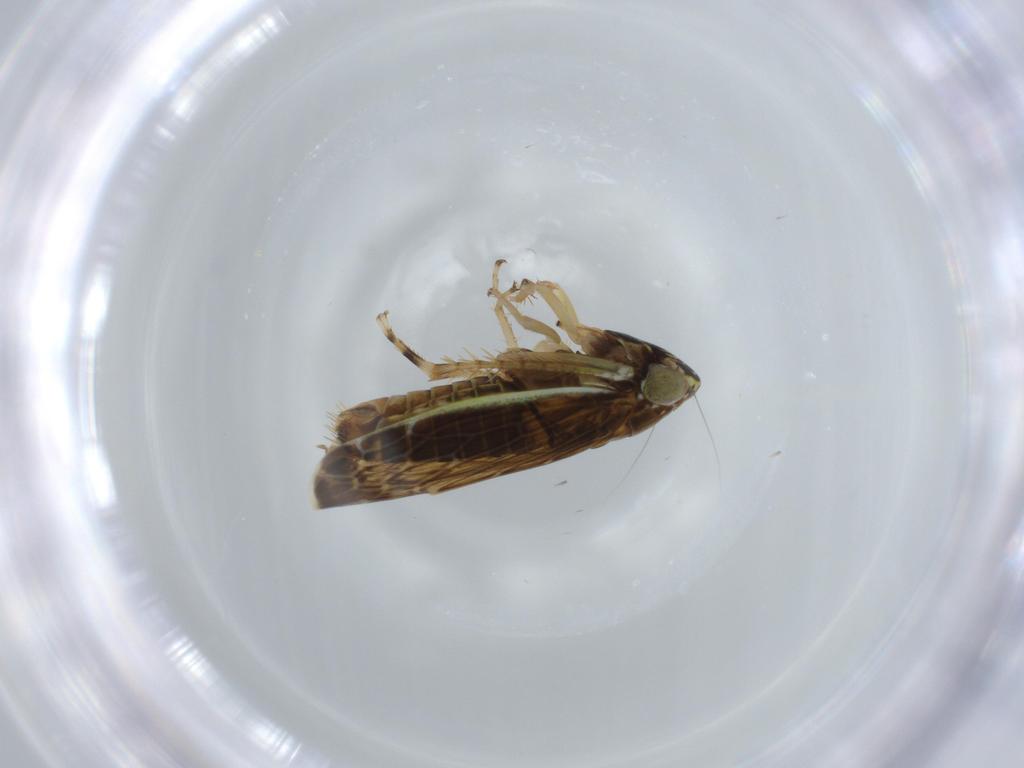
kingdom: Animalia
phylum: Arthropoda
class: Insecta
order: Hemiptera
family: Cicadellidae
